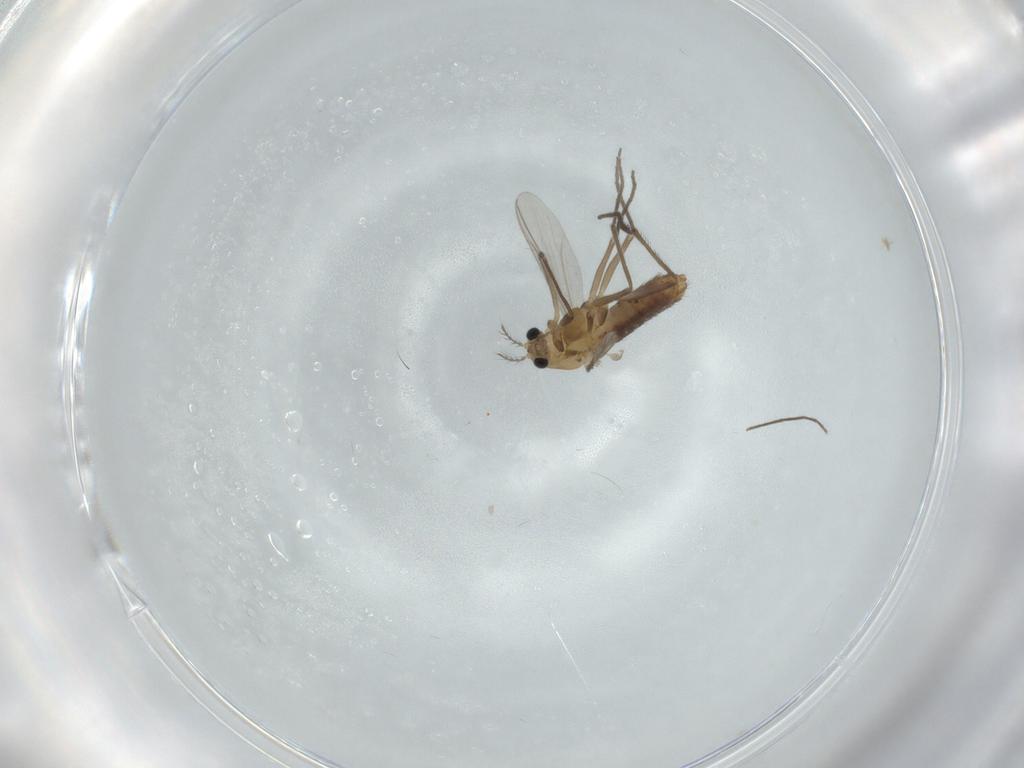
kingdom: Animalia
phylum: Arthropoda
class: Insecta
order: Diptera
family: Chironomidae
